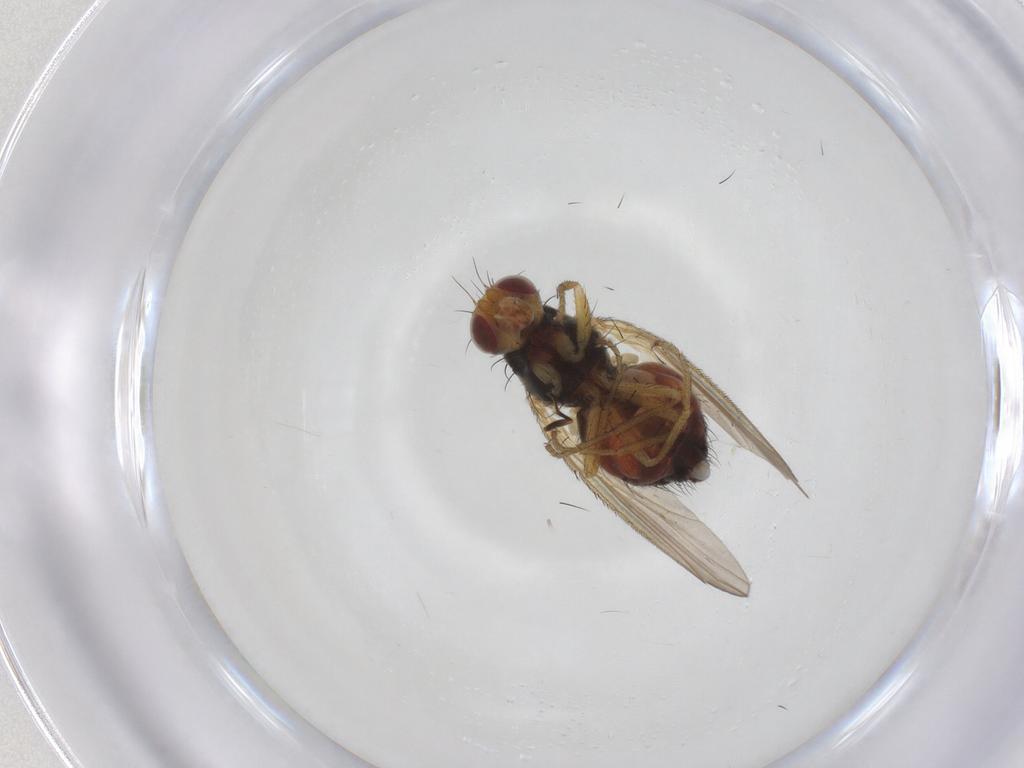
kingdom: Animalia
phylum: Arthropoda
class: Insecta
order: Diptera
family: Heleomyzidae
